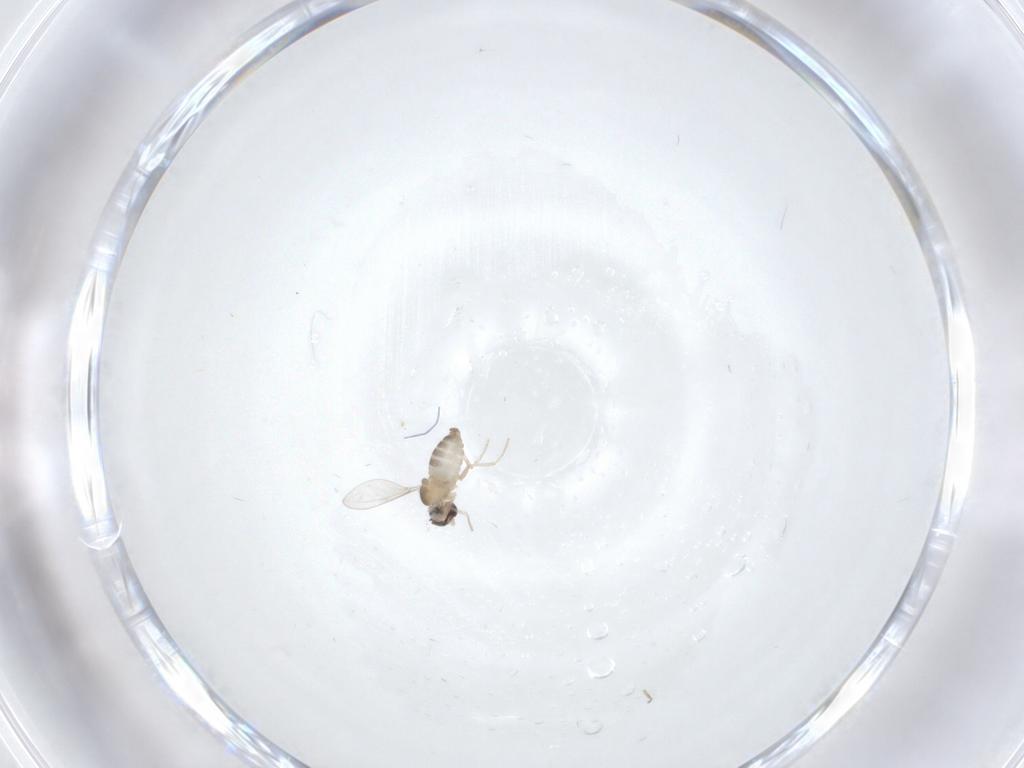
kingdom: Animalia
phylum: Arthropoda
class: Insecta
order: Diptera
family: Cecidomyiidae
